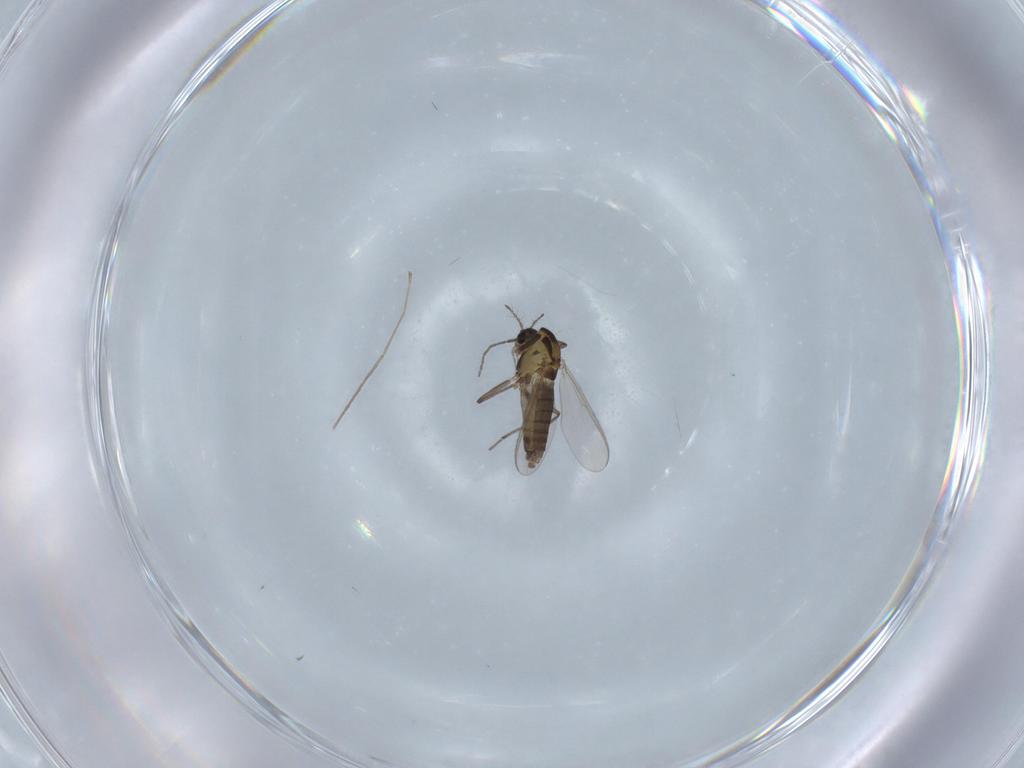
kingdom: Animalia
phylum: Arthropoda
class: Insecta
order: Diptera
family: Cecidomyiidae
